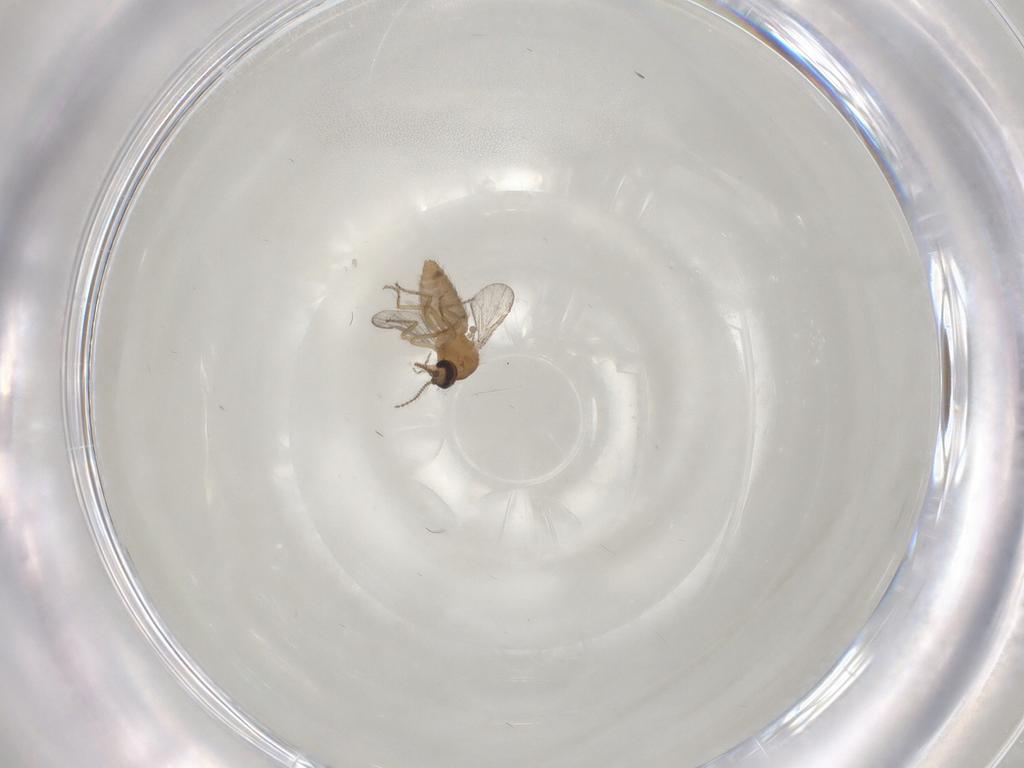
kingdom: Animalia
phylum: Arthropoda
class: Insecta
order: Diptera
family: Ceratopogonidae
